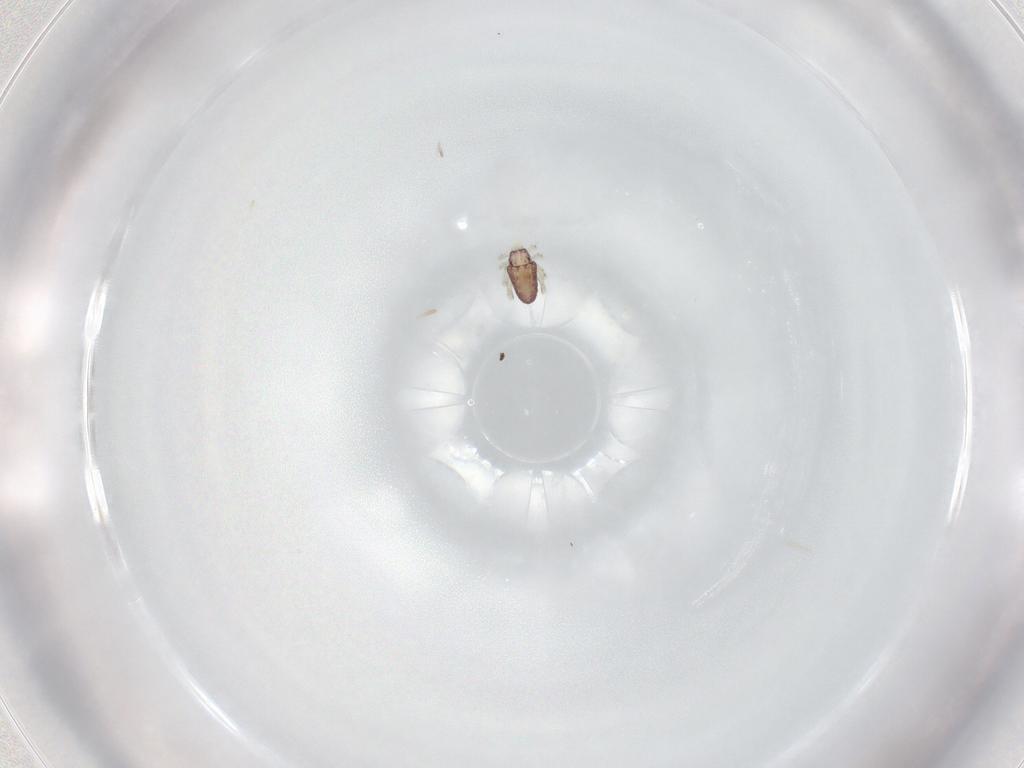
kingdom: Animalia
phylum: Arthropoda
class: Arachnida
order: Trombidiformes
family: Bdellidae
